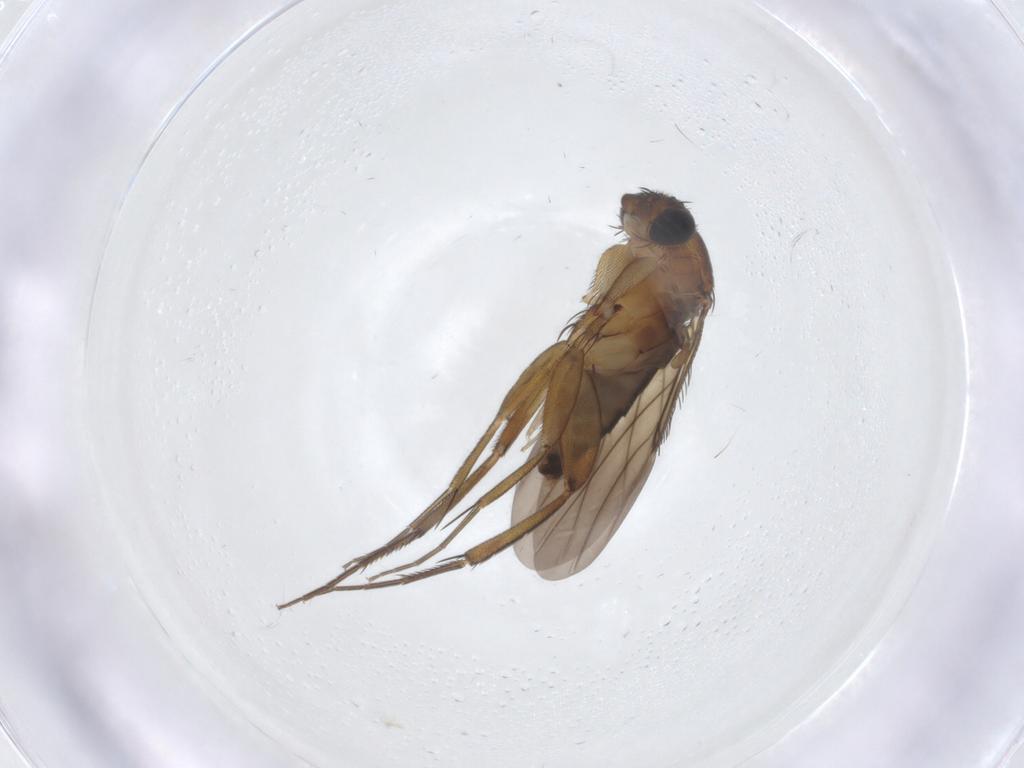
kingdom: Animalia
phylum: Arthropoda
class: Insecta
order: Diptera
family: Phoridae
